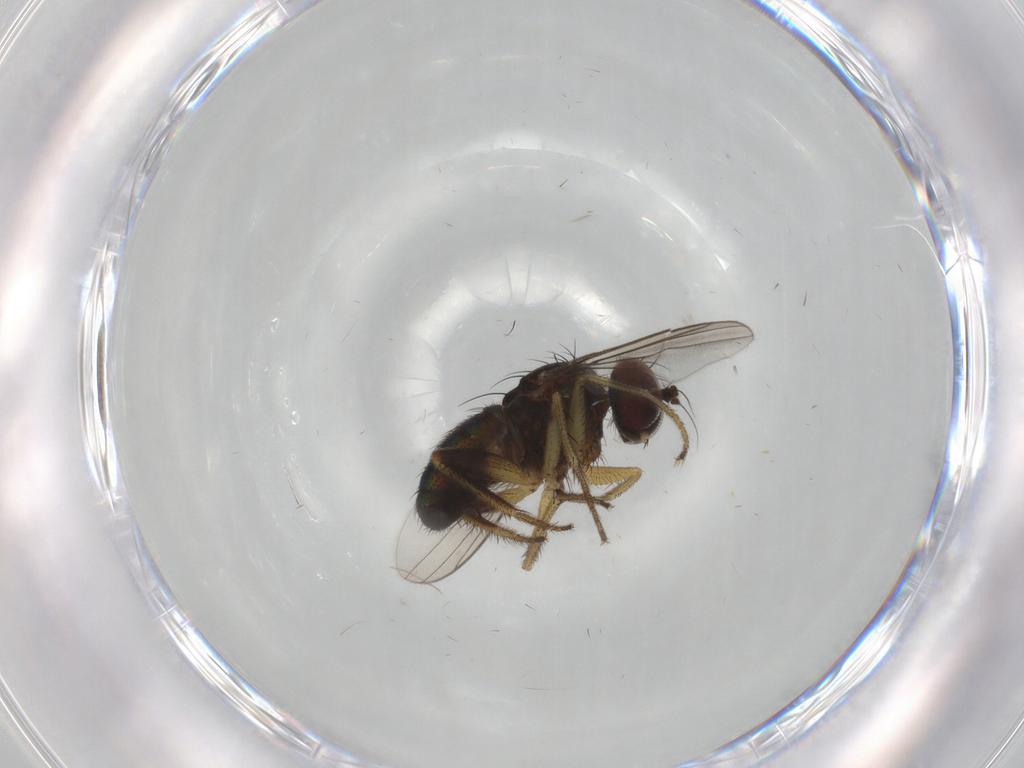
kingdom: Animalia
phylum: Arthropoda
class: Insecta
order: Diptera
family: Dolichopodidae
